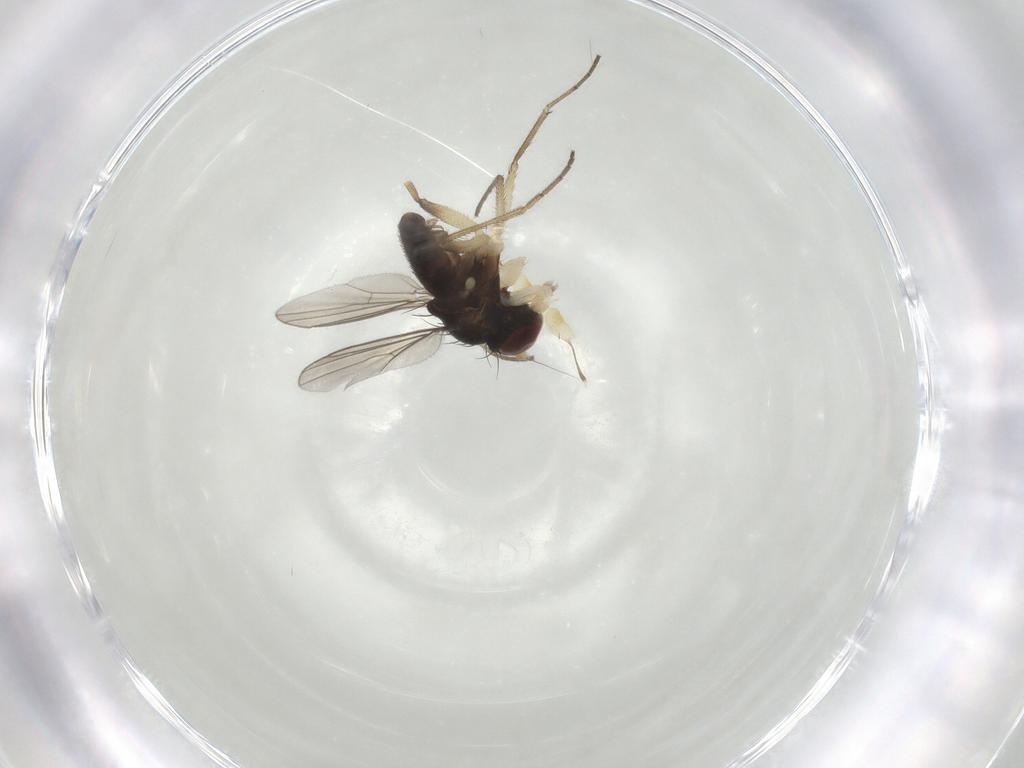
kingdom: Animalia
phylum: Arthropoda
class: Insecta
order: Diptera
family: Dolichopodidae
